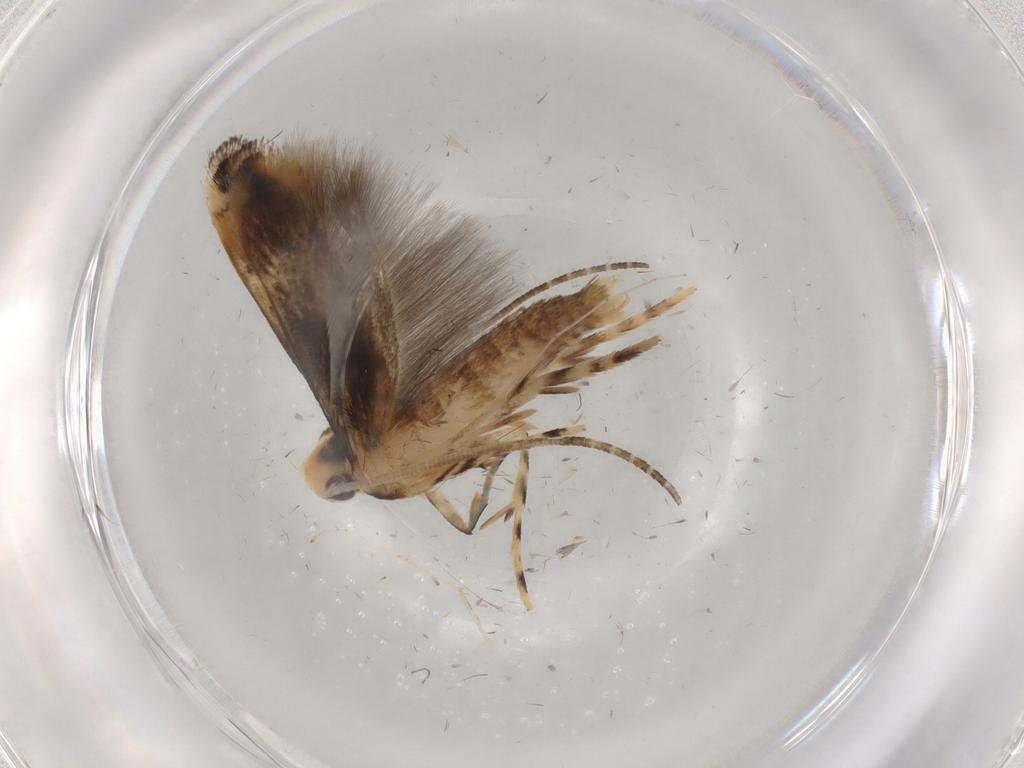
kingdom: Animalia
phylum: Arthropoda
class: Insecta
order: Lepidoptera
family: Momphidae
